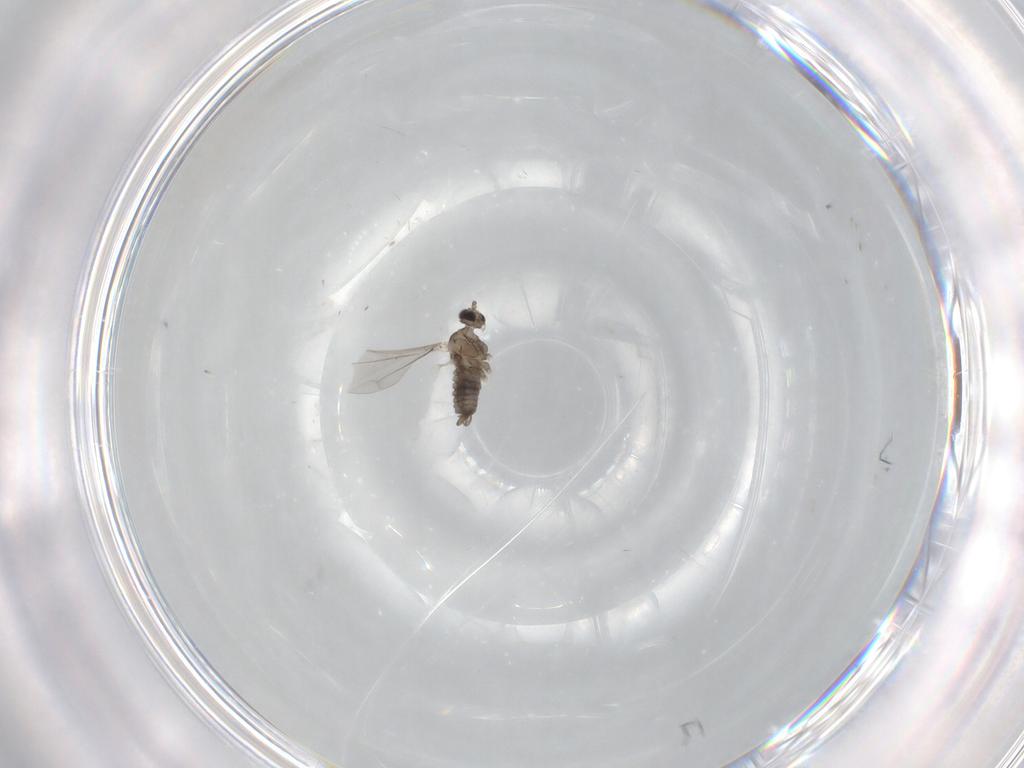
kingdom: Animalia
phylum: Arthropoda
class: Insecta
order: Diptera
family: Cecidomyiidae
